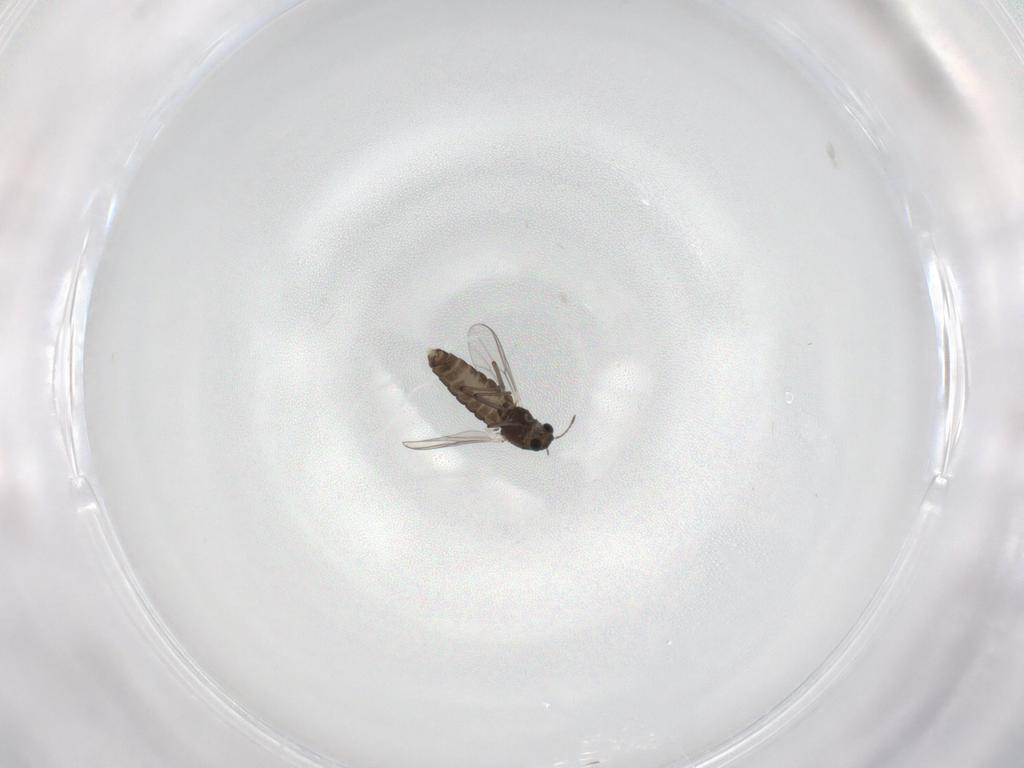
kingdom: Animalia
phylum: Arthropoda
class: Insecta
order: Diptera
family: Chironomidae
